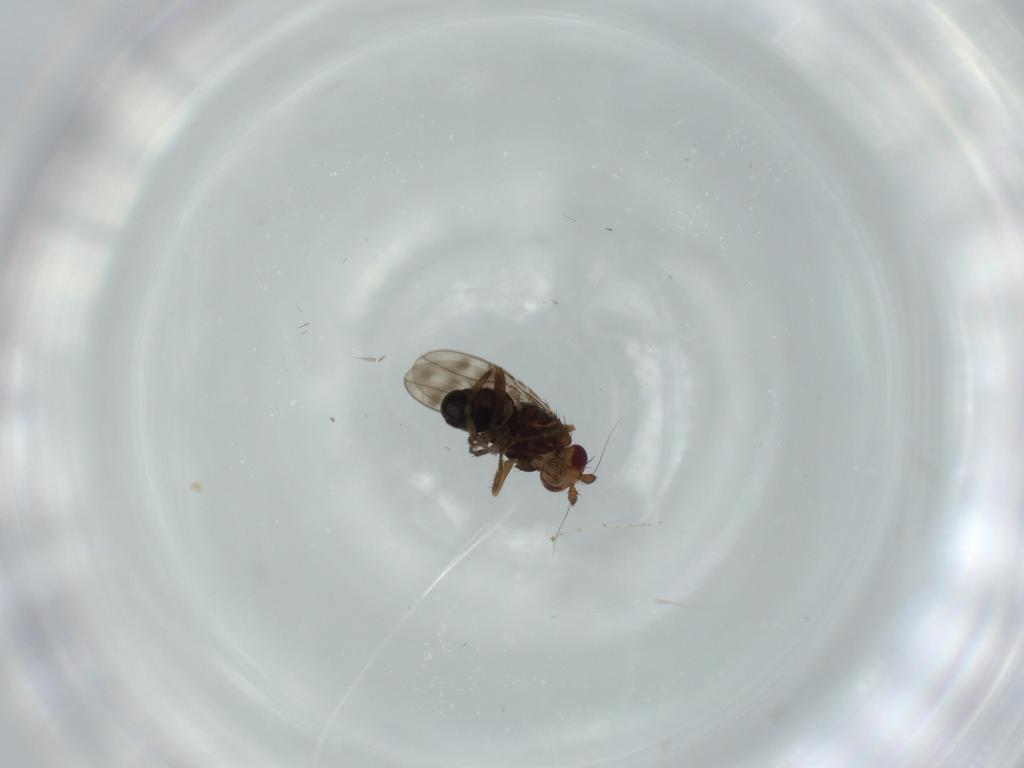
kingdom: Animalia
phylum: Arthropoda
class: Insecta
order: Diptera
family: Sphaeroceridae
